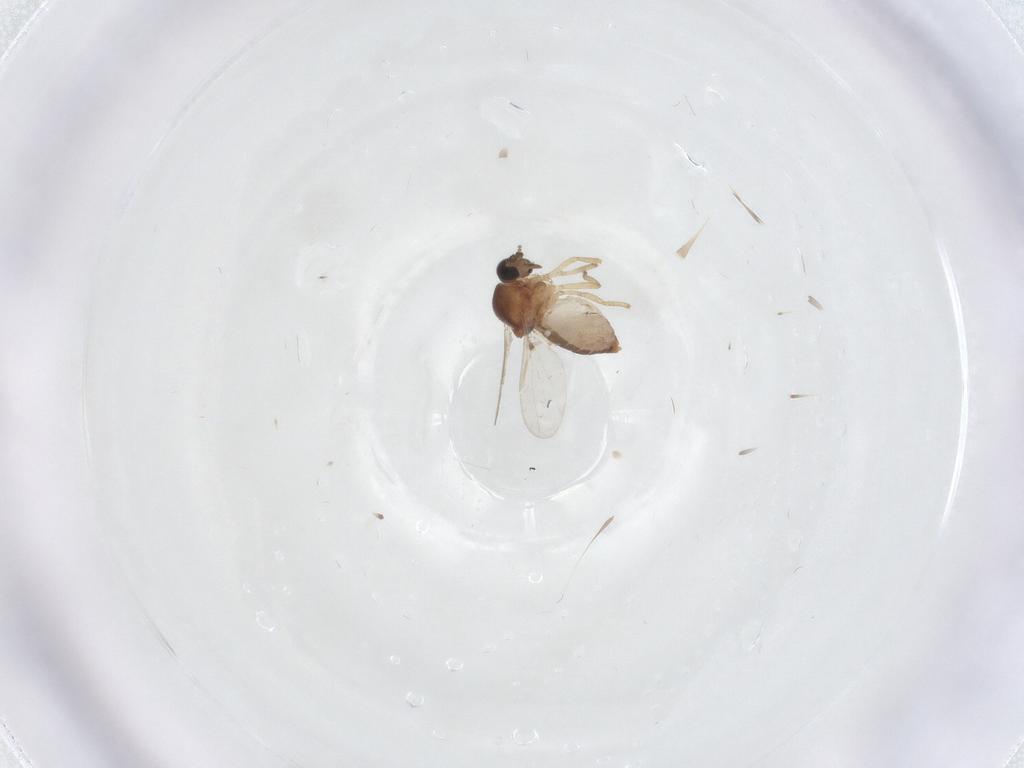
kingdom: Animalia
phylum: Arthropoda
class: Insecta
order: Diptera
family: Ceratopogonidae
